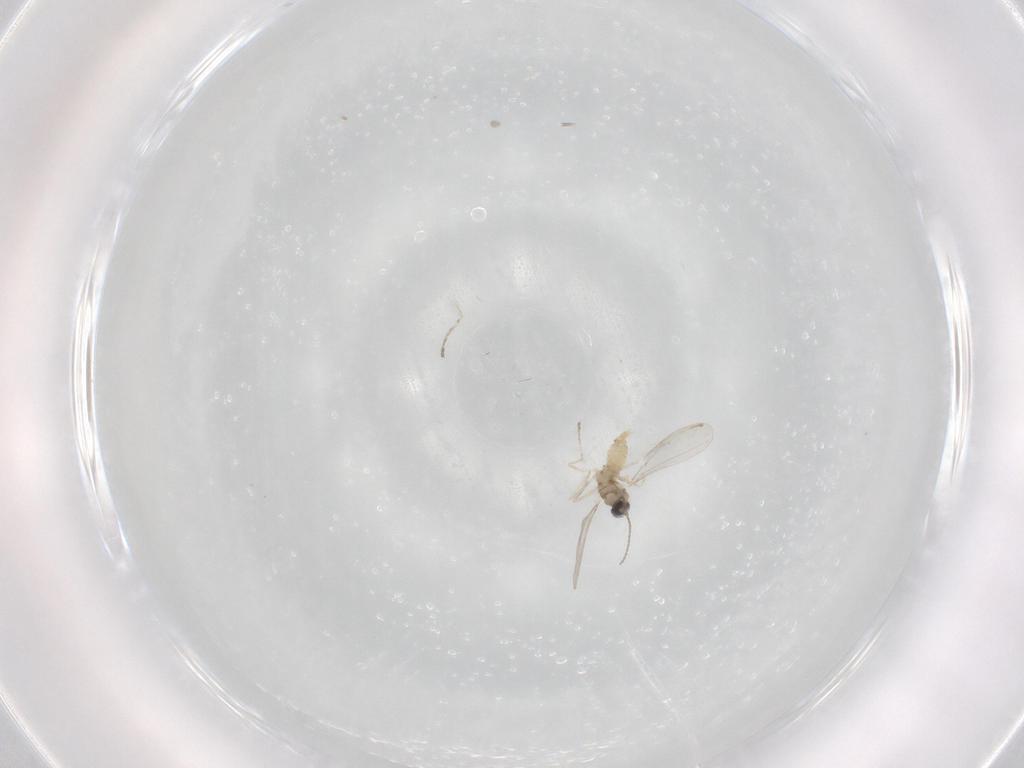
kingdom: Animalia
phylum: Arthropoda
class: Insecta
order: Diptera
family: Cecidomyiidae
